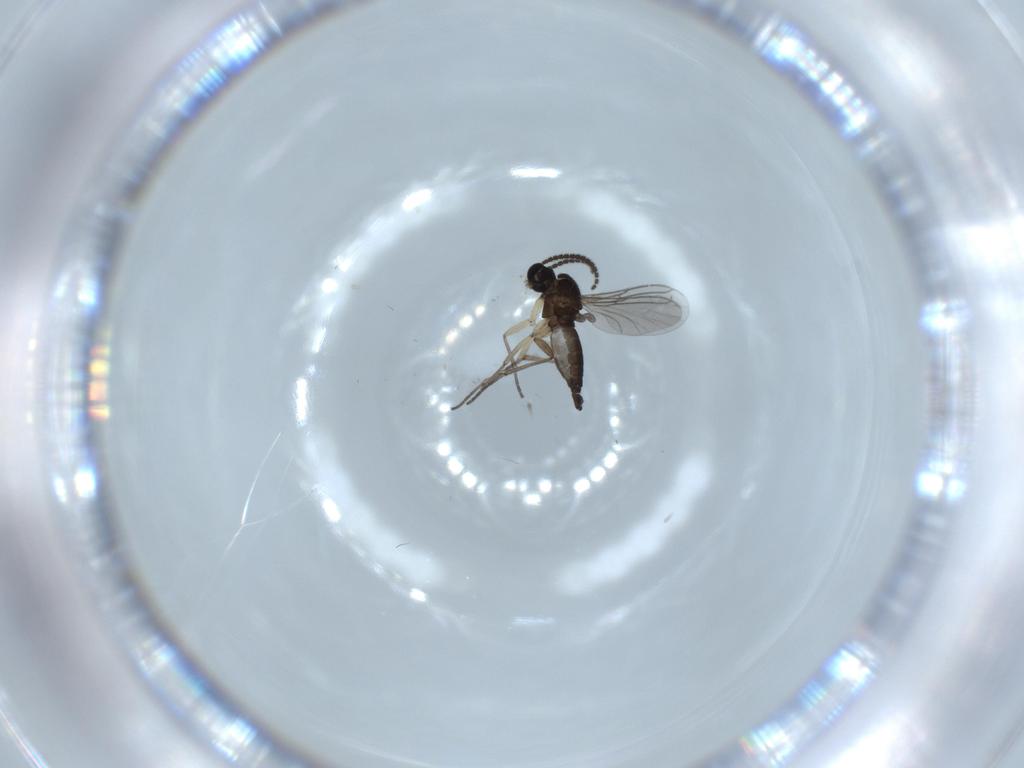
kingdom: Animalia
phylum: Arthropoda
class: Insecta
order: Diptera
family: Sciaridae
